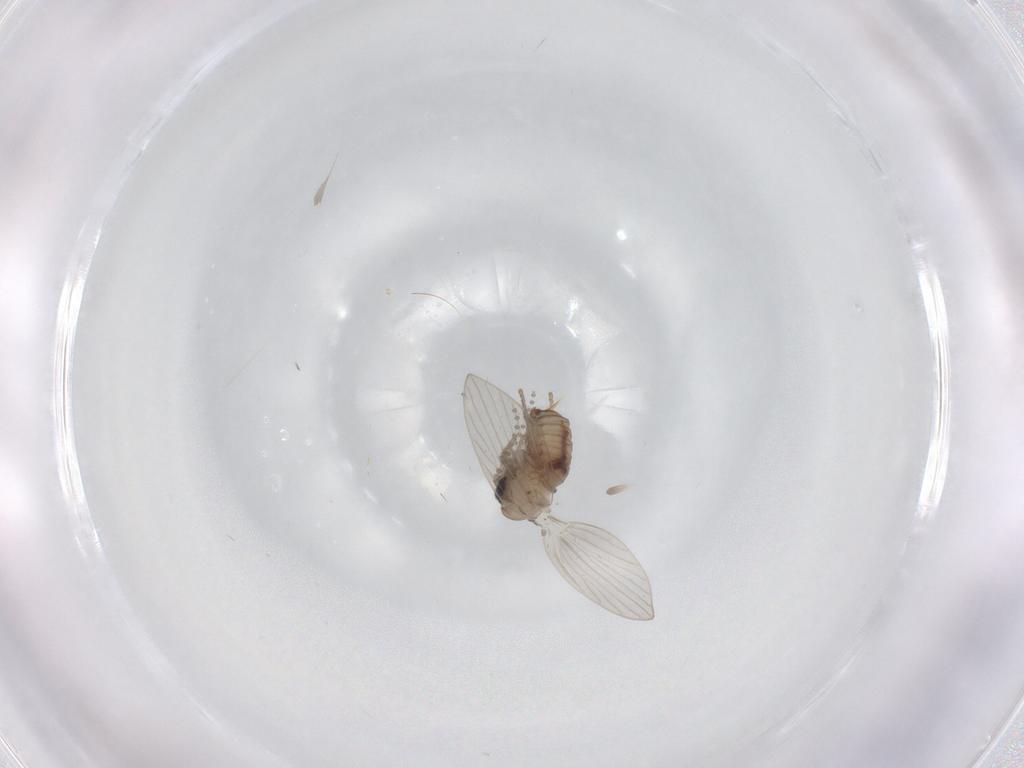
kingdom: Animalia
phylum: Arthropoda
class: Insecta
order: Diptera
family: Psychodidae
